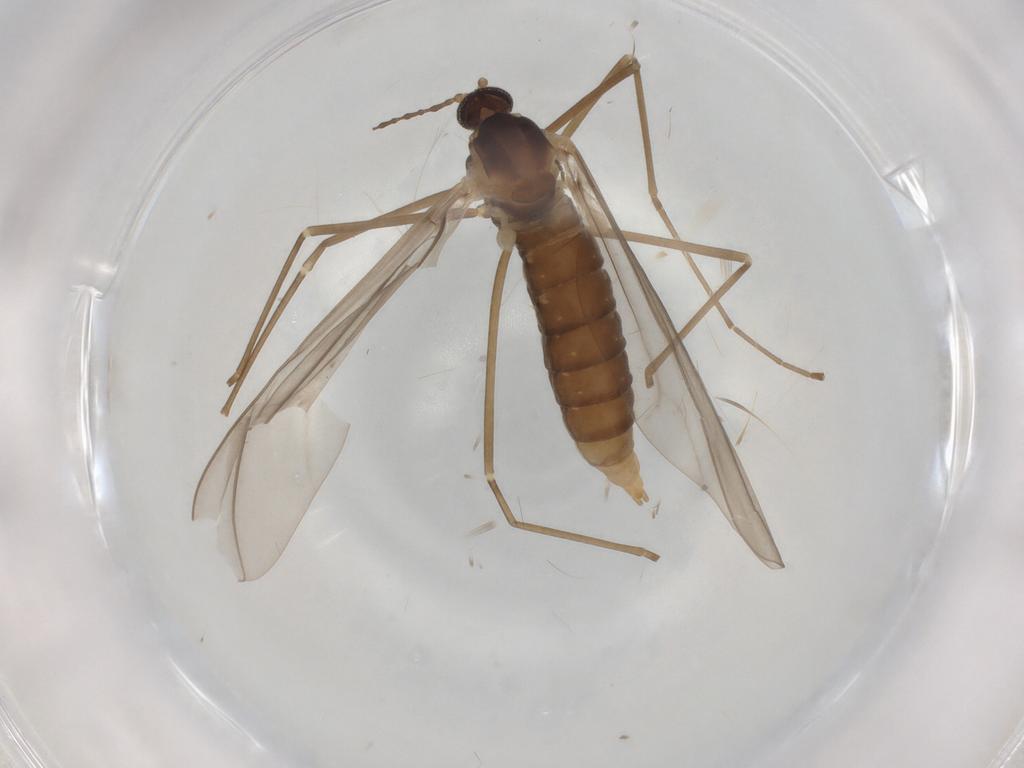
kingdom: Animalia
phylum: Arthropoda
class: Insecta
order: Diptera
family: Cecidomyiidae
